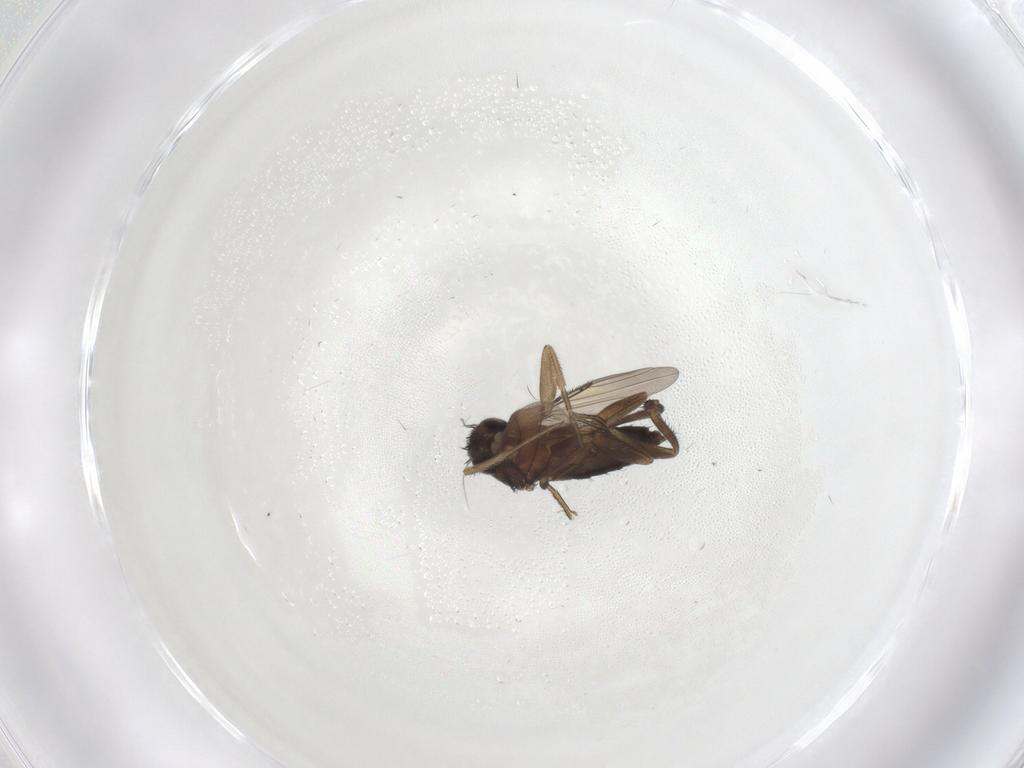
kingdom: Animalia
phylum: Arthropoda
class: Insecta
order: Diptera
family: Phoridae
